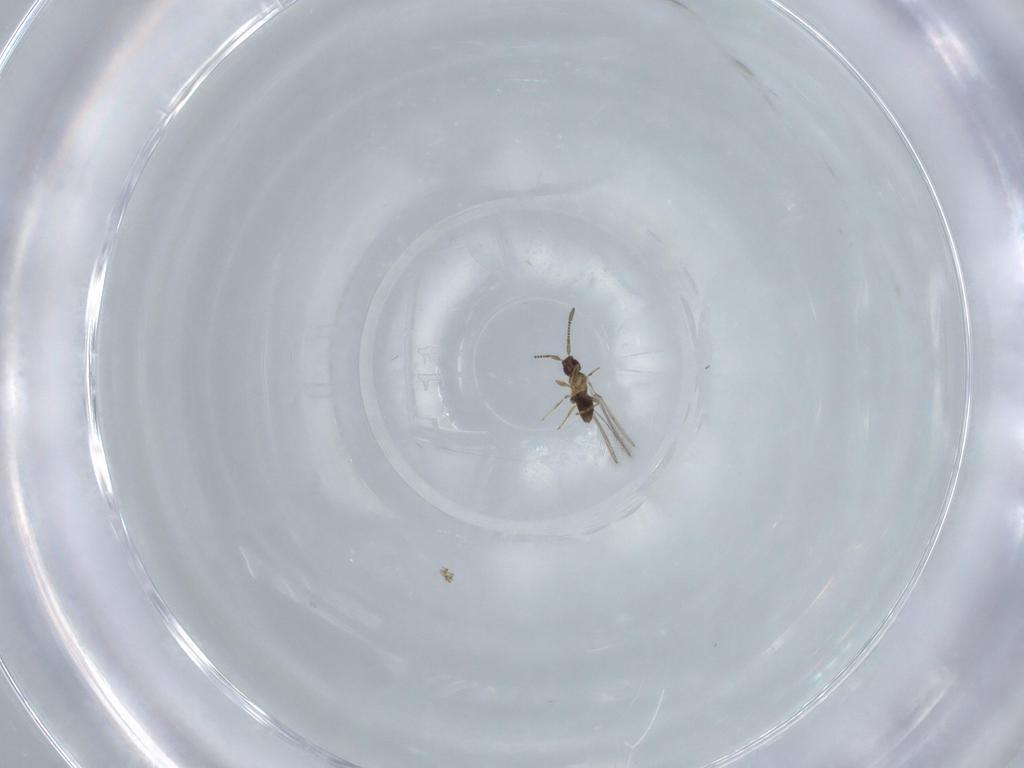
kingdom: Animalia
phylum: Arthropoda
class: Insecta
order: Hymenoptera
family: Mymaridae
